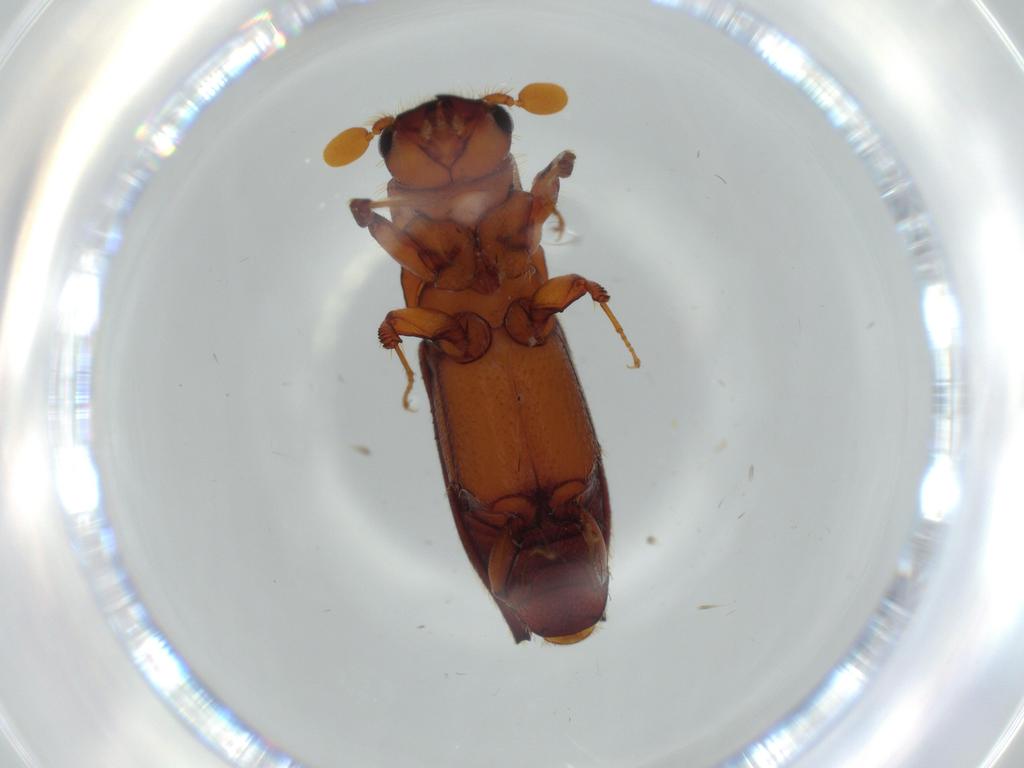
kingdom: Animalia
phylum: Arthropoda
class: Insecta
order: Coleoptera
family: Curculionidae
